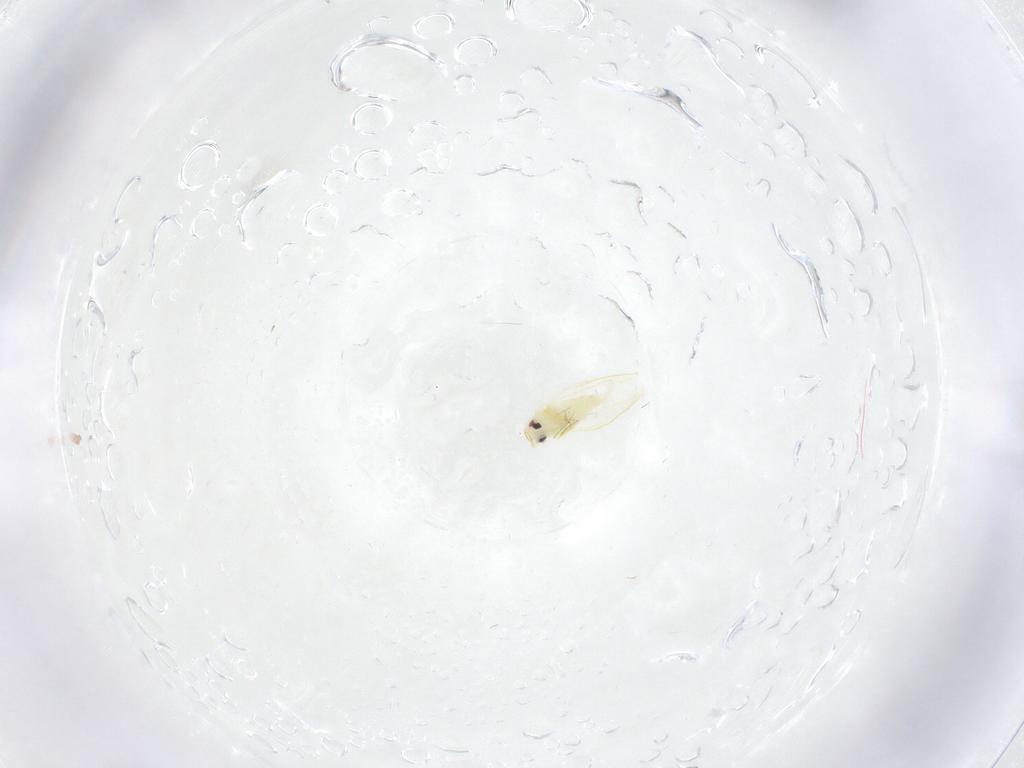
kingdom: Animalia
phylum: Arthropoda
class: Insecta
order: Hemiptera
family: Aleyrodidae
